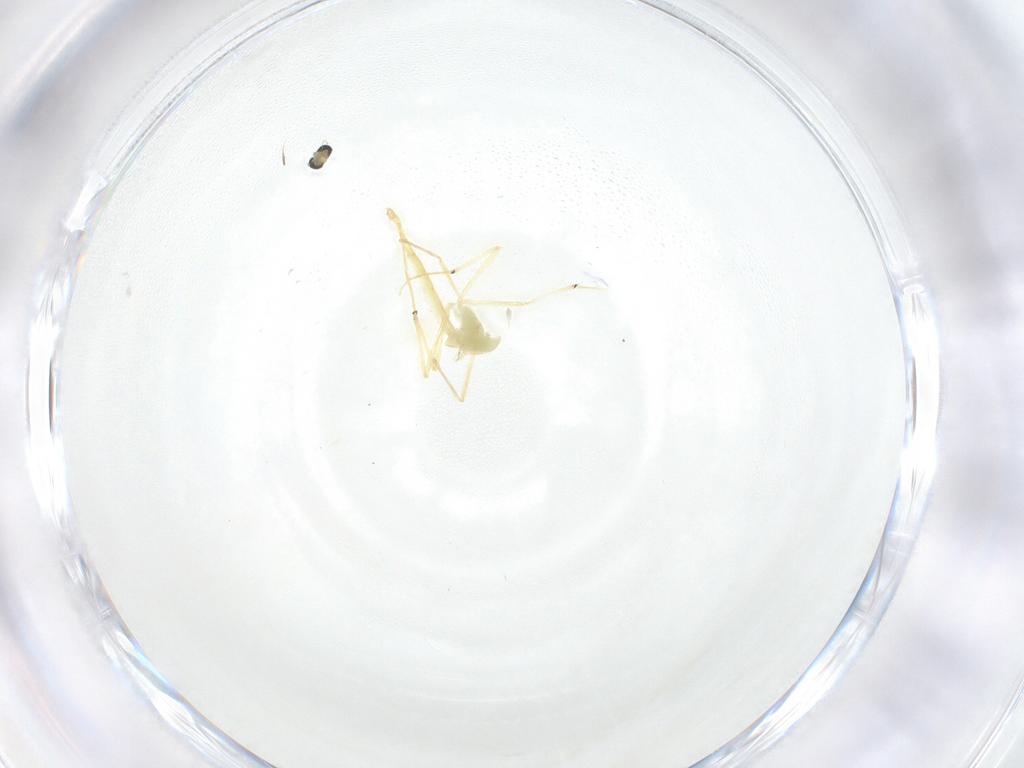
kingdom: Animalia
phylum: Arthropoda
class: Insecta
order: Diptera
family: Chironomidae
